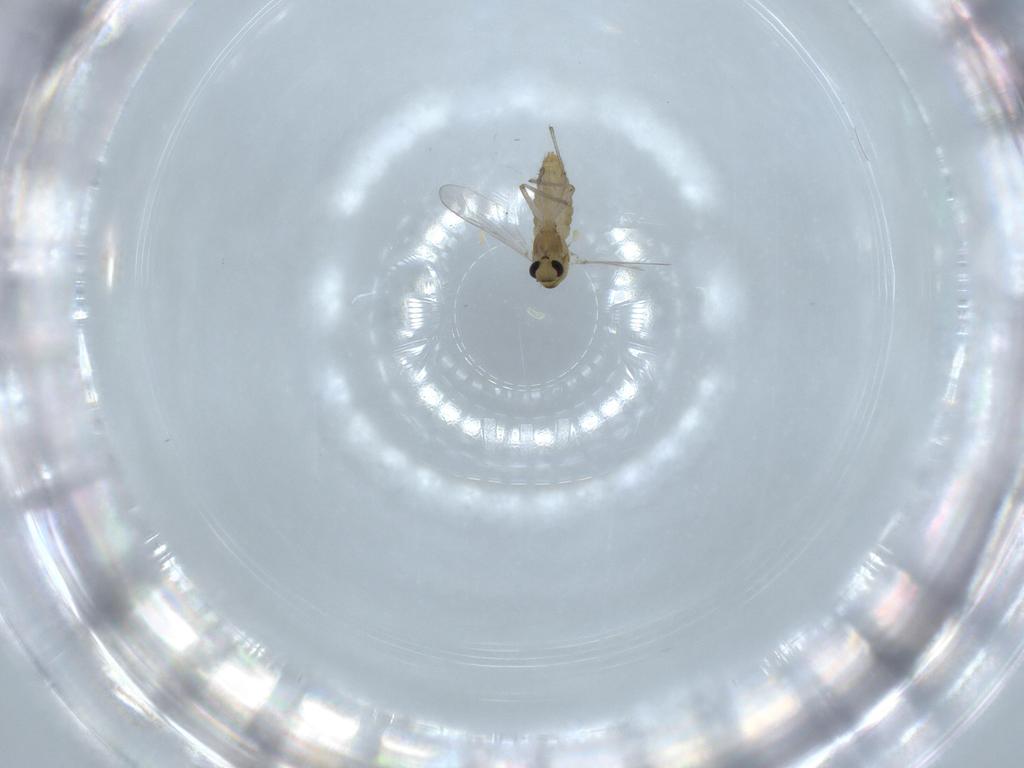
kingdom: Animalia
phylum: Arthropoda
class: Insecta
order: Diptera
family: Chironomidae
